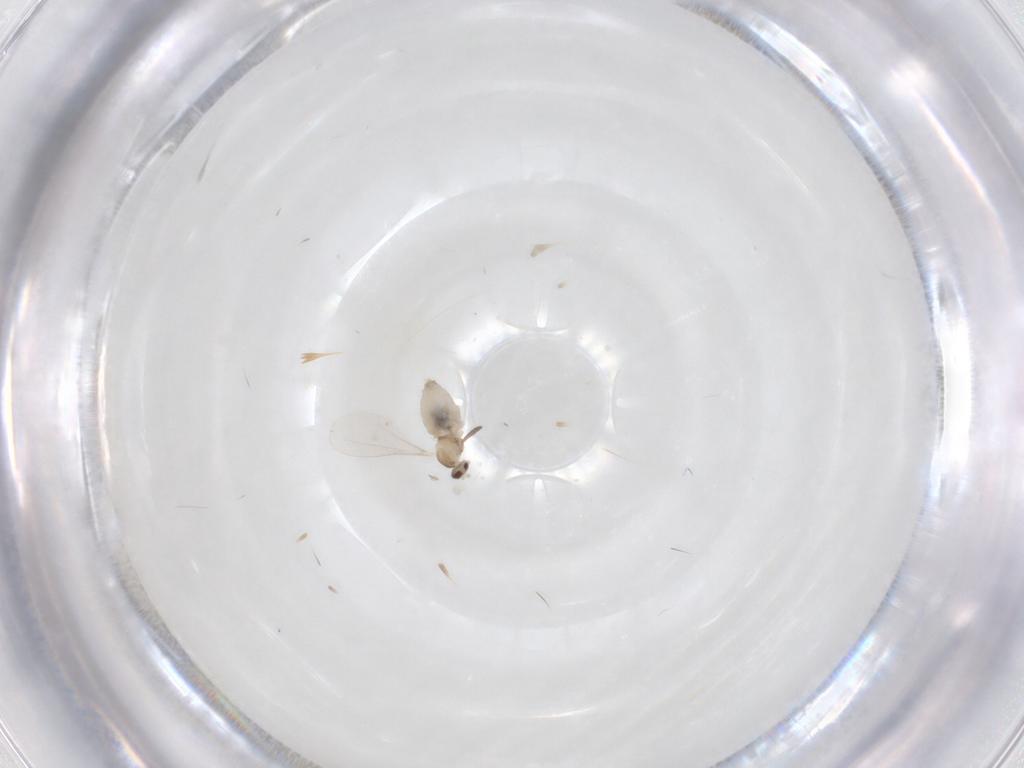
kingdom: Animalia
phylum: Arthropoda
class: Insecta
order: Diptera
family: Cecidomyiidae
